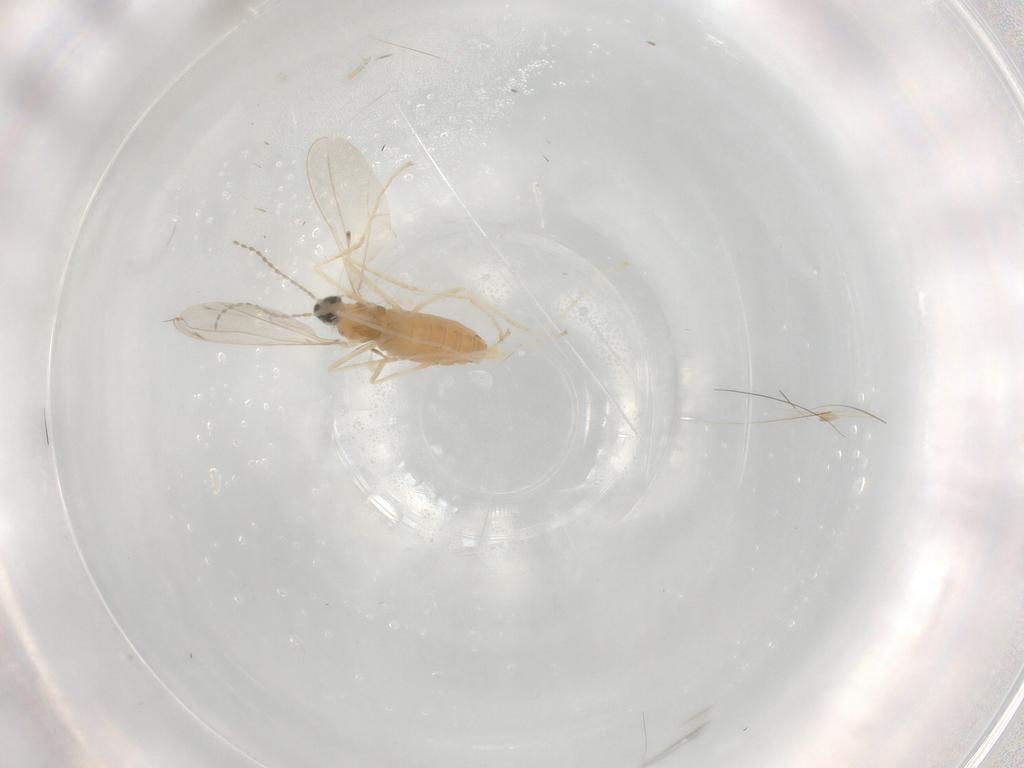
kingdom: Animalia
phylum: Arthropoda
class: Insecta
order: Diptera
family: Cecidomyiidae
